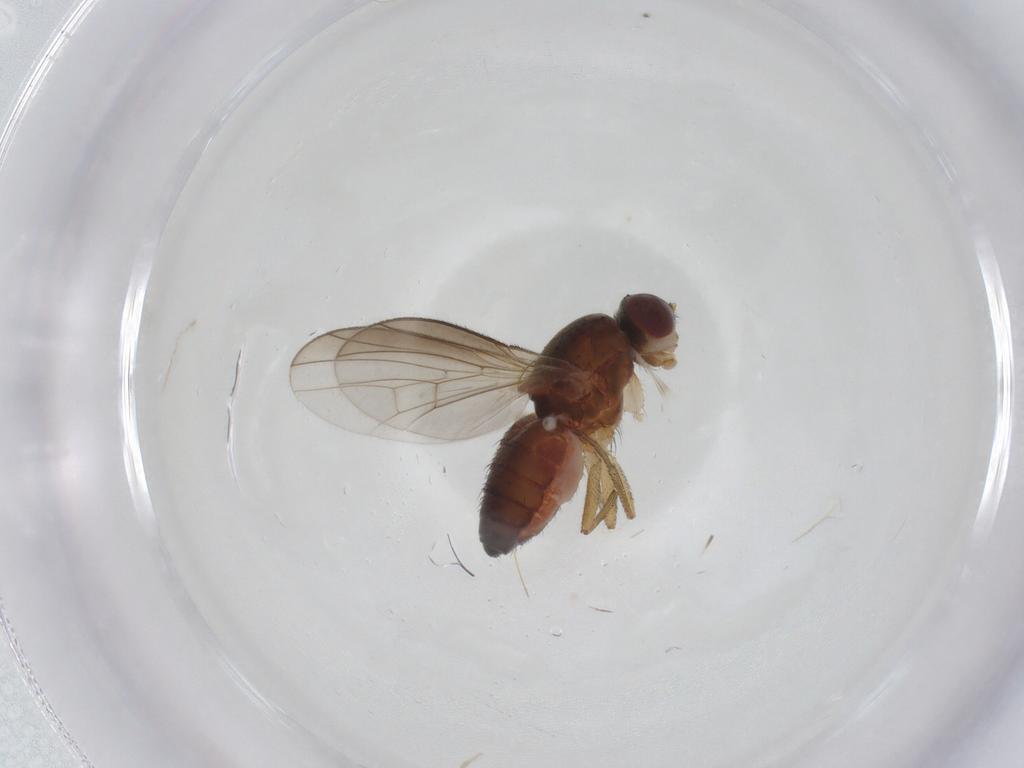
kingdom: Animalia
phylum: Arthropoda
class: Insecta
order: Diptera
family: Heleomyzidae
